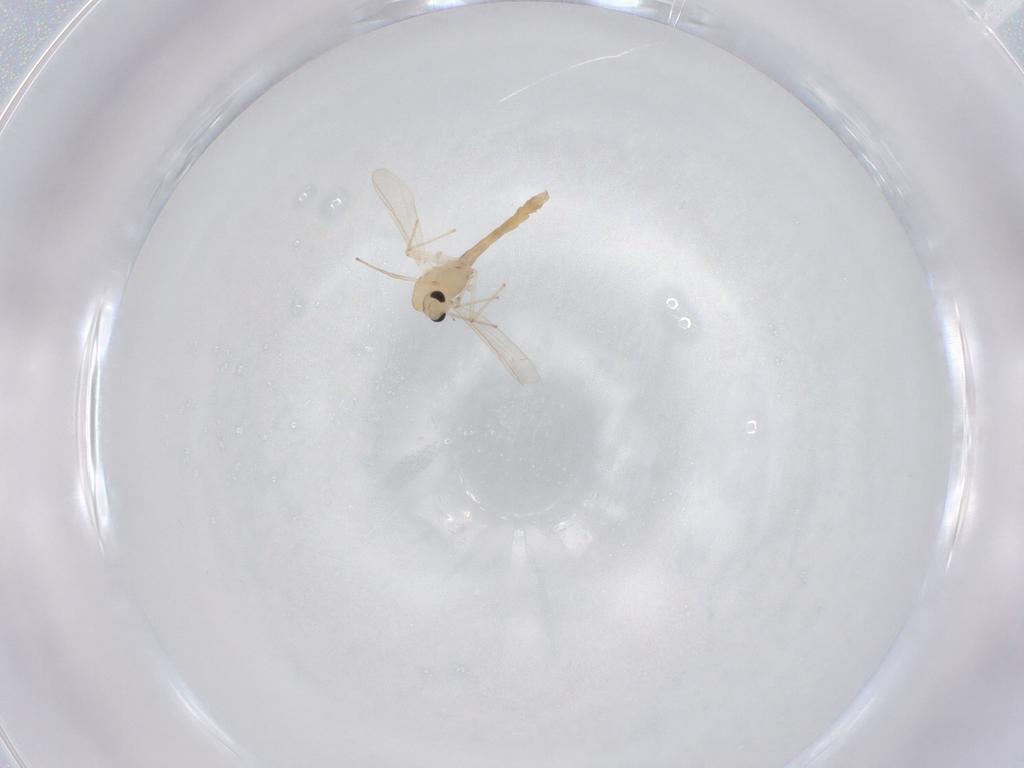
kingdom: Animalia
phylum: Arthropoda
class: Insecta
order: Diptera
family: Chironomidae
